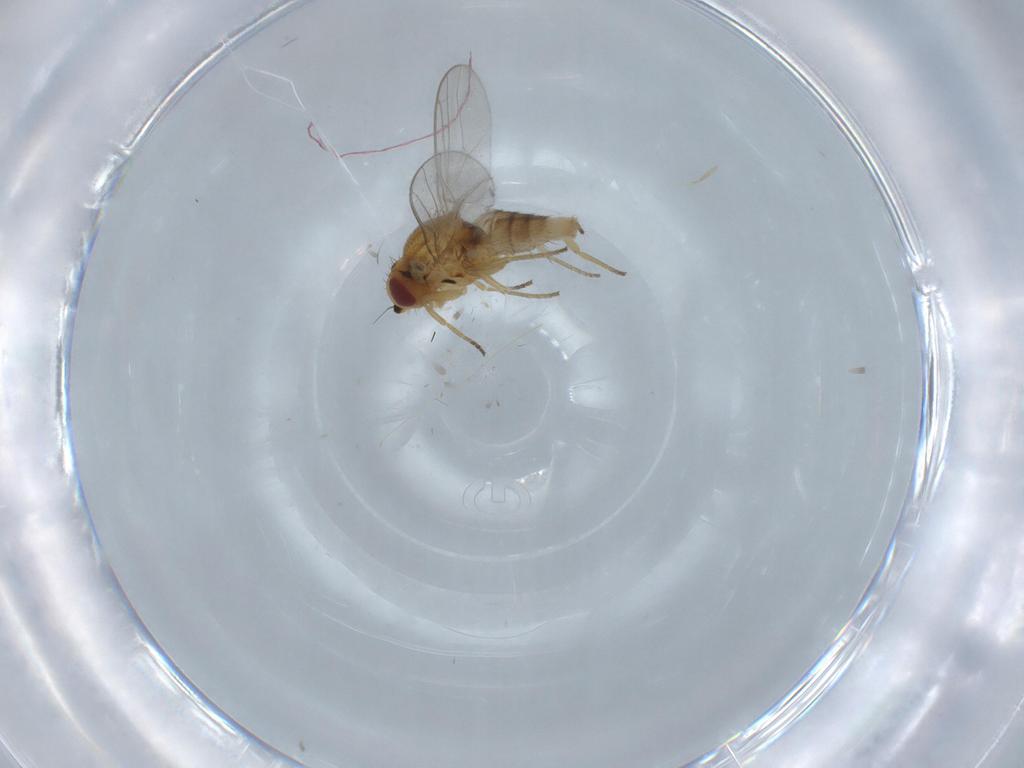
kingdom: Animalia
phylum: Arthropoda
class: Insecta
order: Diptera
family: Chloropidae
